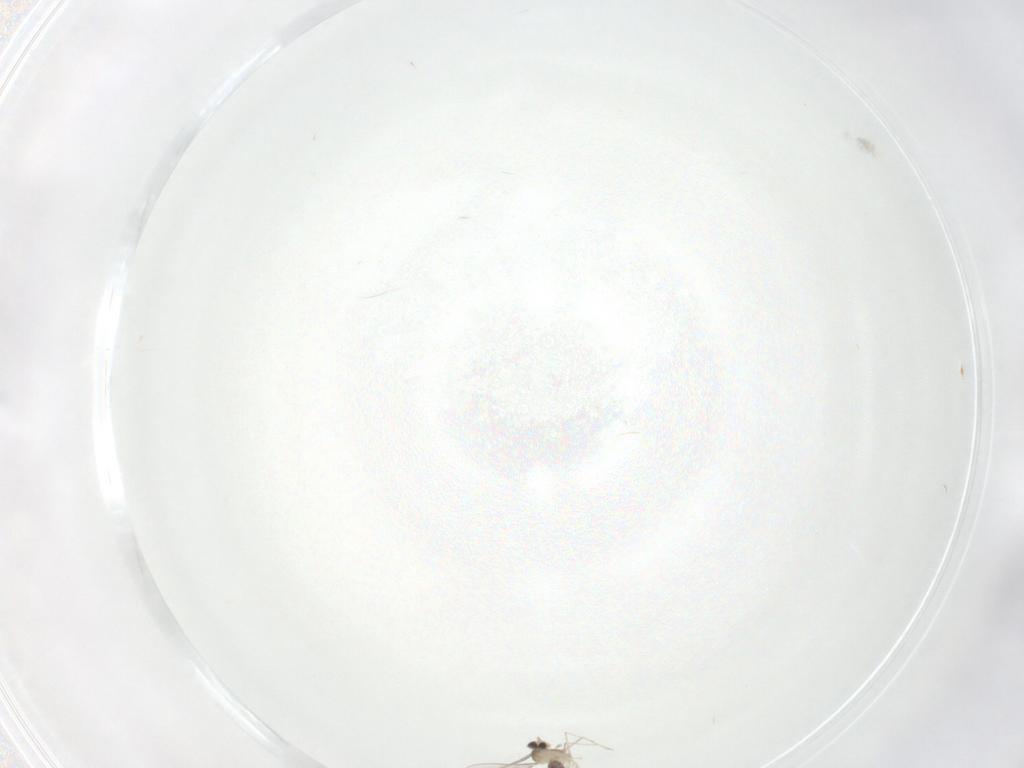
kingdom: Animalia
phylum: Arthropoda
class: Insecta
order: Diptera
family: Cecidomyiidae
